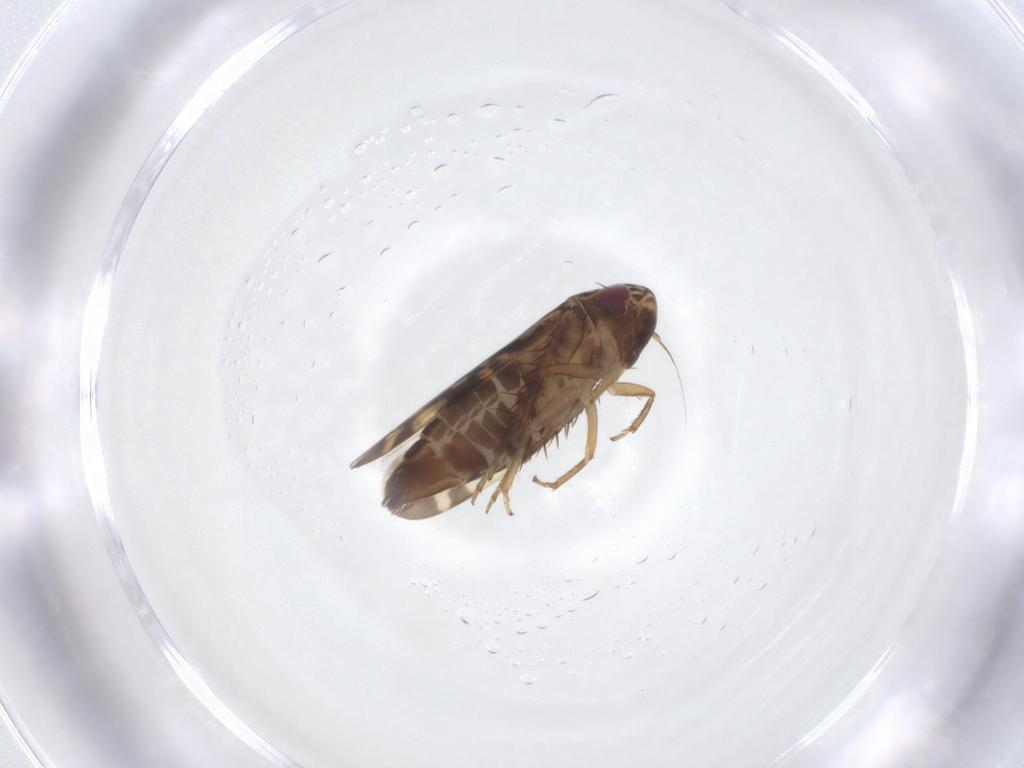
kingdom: Animalia
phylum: Arthropoda
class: Insecta
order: Hemiptera
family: Cicadellidae
